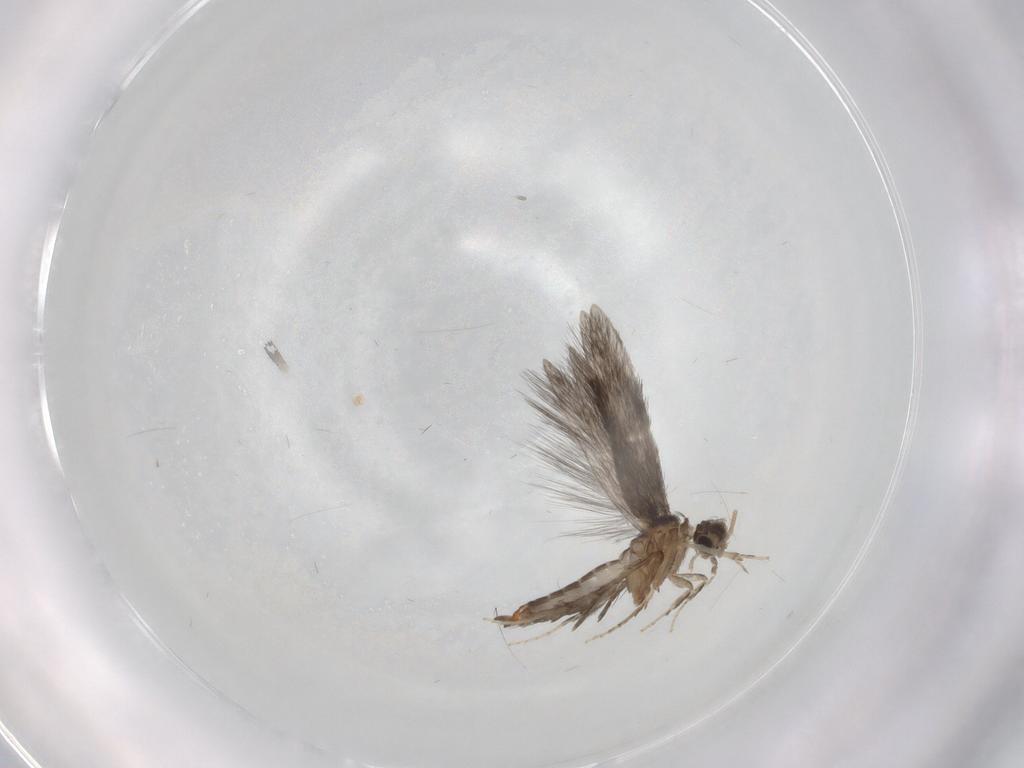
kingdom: Animalia
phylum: Arthropoda
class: Insecta
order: Trichoptera
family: Hydroptilidae
